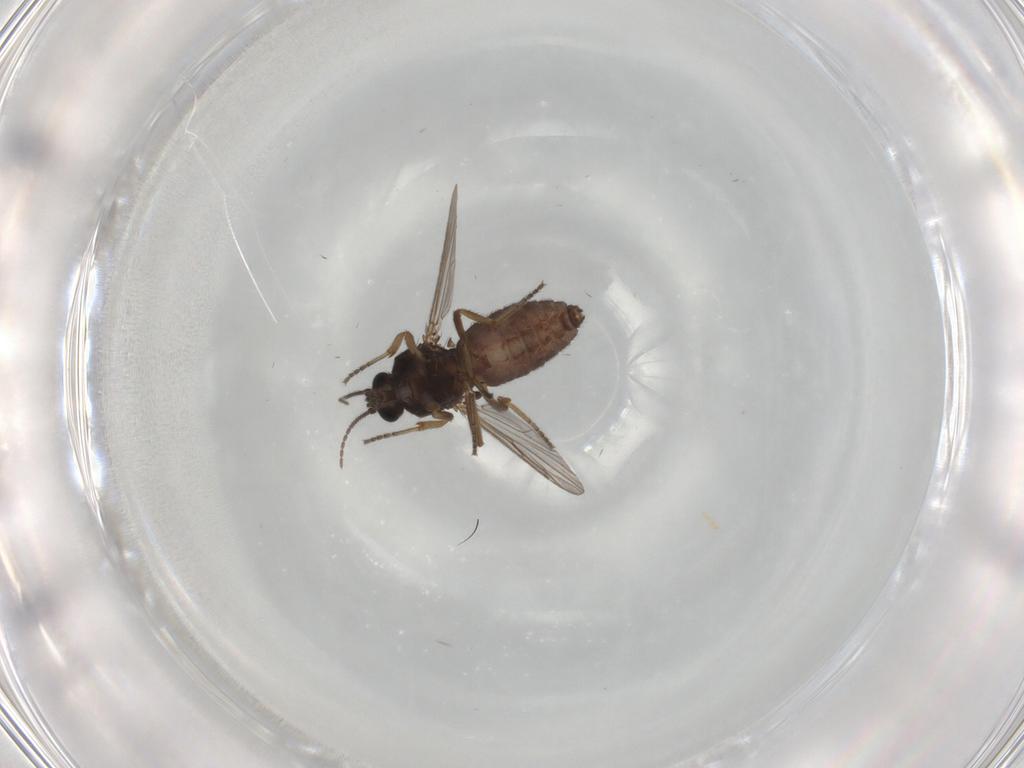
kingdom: Animalia
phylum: Arthropoda
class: Insecta
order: Diptera
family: Ceratopogonidae
